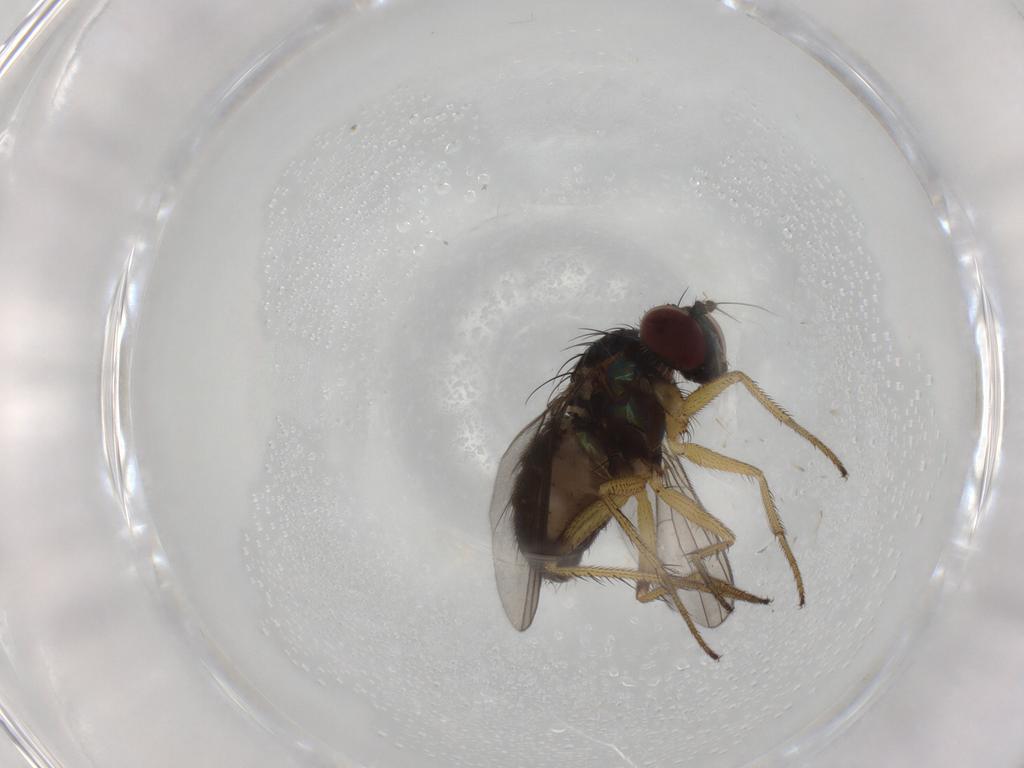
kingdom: Animalia
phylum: Arthropoda
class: Insecta
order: Diptera
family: Dolichopodidae
